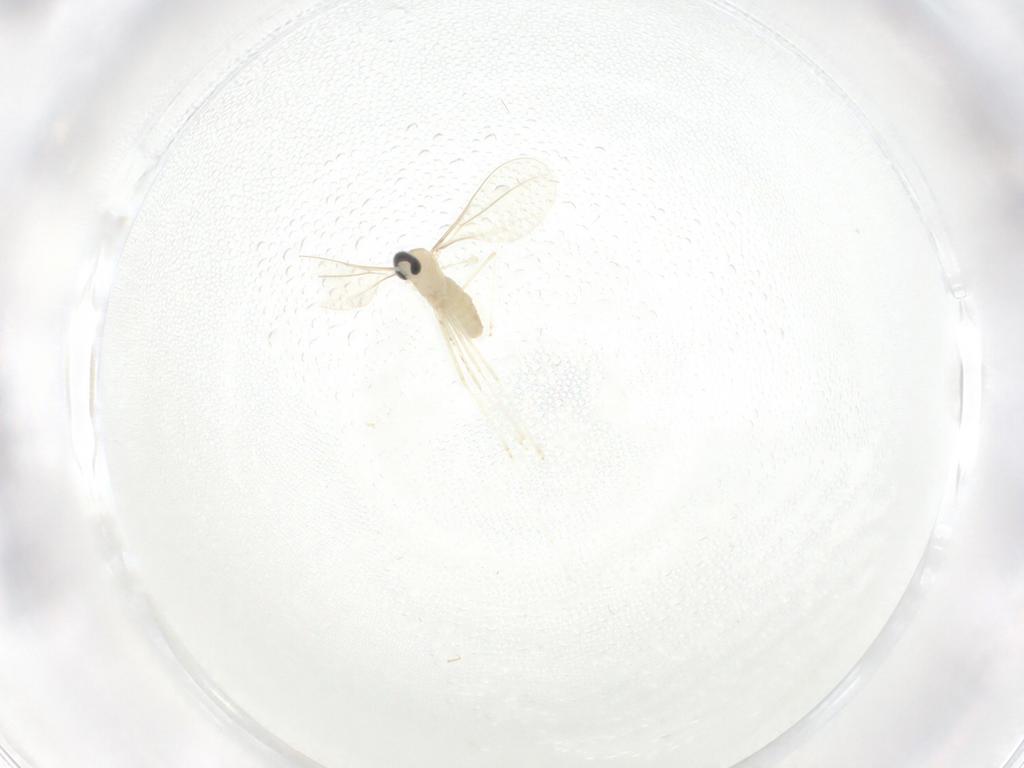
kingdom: Animalia
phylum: Arthropoda
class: Insecta
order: Diptera
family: Cecidomyiidae
